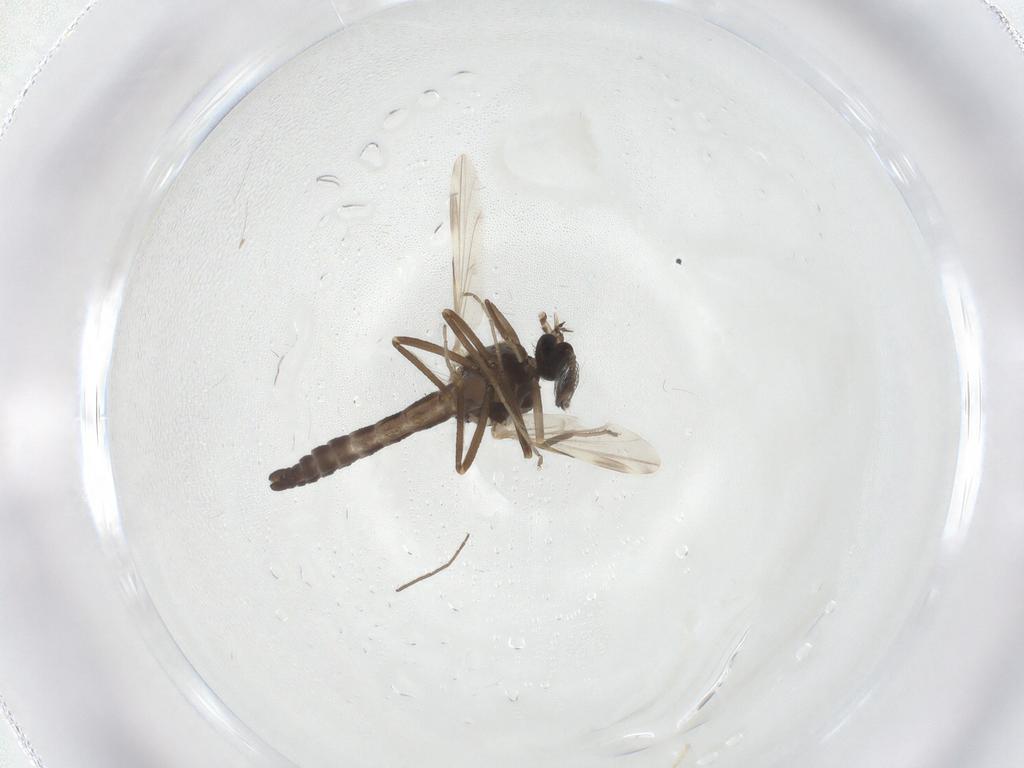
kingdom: Animalia
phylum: Arthropoda
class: Insecta
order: Diptera
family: Ceratopogonidae
